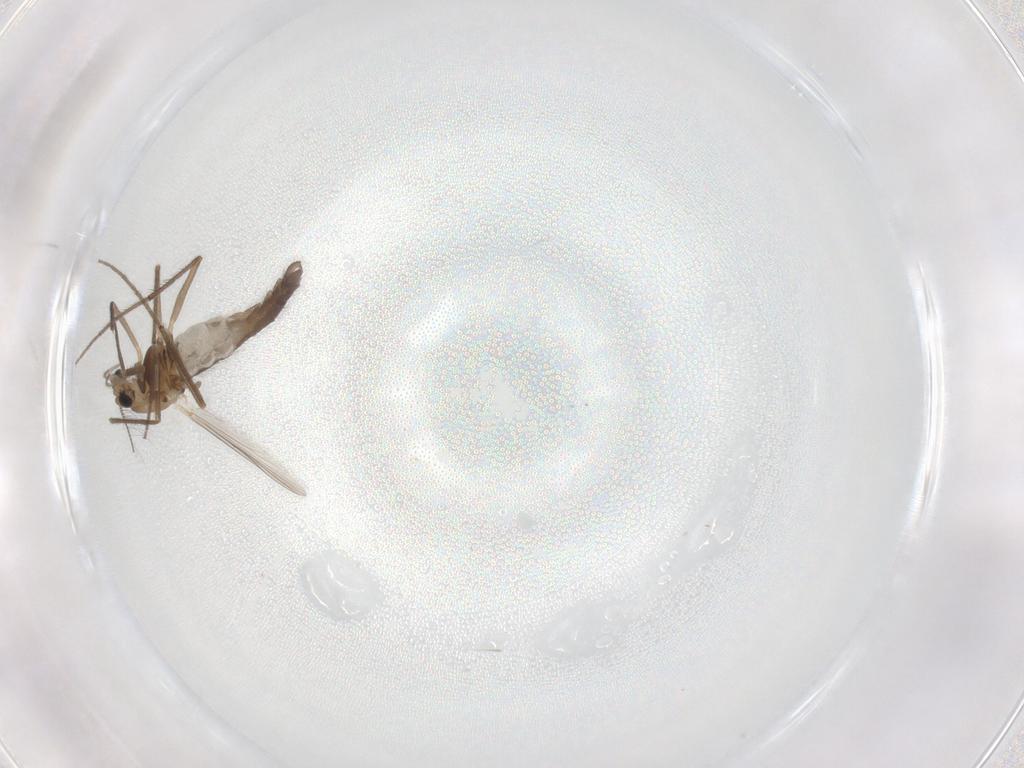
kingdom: Animalia
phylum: Arthropoda
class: Insecta
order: Diptera
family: Chironomidae
